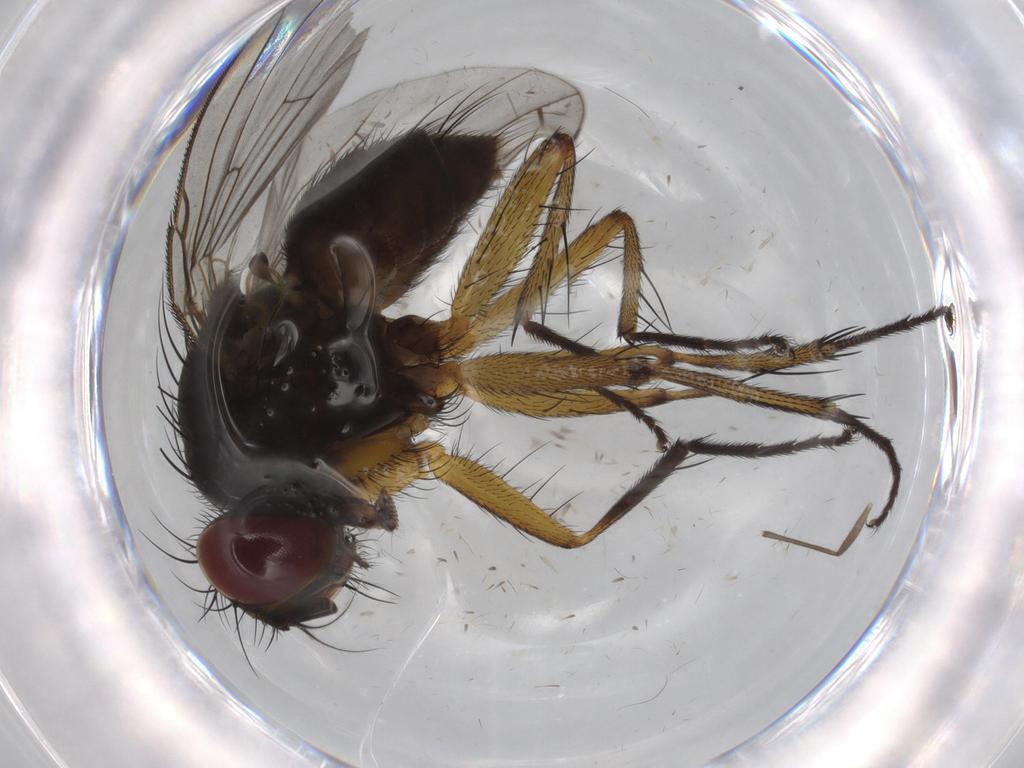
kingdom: Animalia
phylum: Arthropoda
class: Insecta
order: Diptera
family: Muscidae
